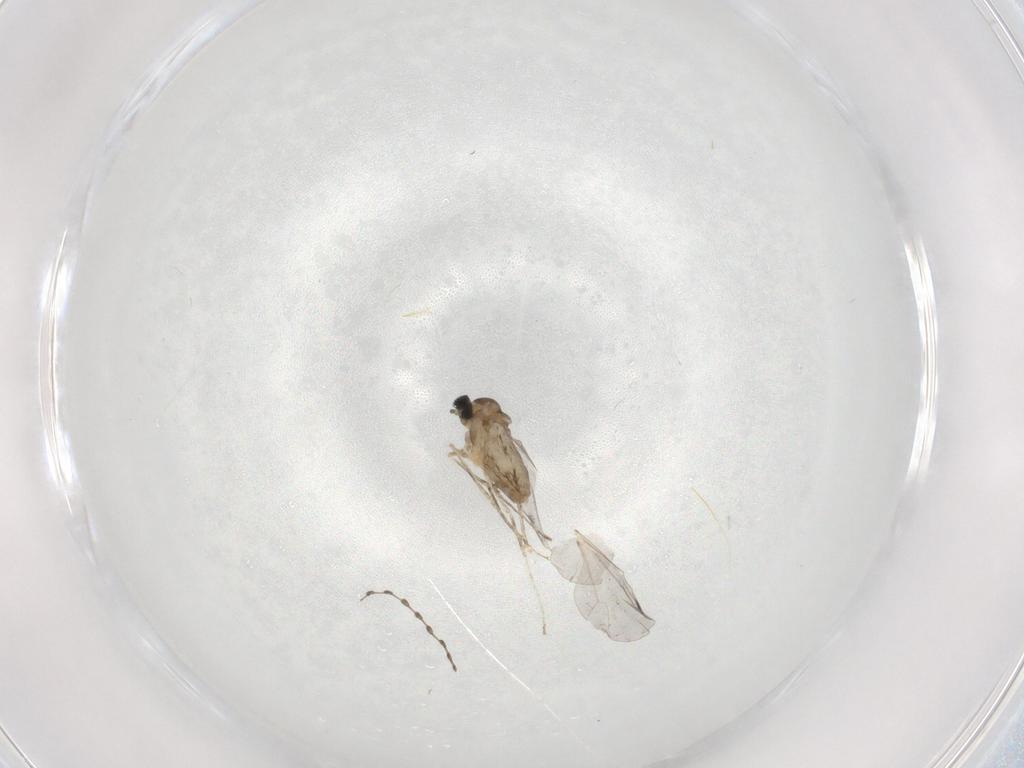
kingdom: Animalia
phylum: Arthropoda
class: Insecta
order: Diptera
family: Cecidomyiidae
